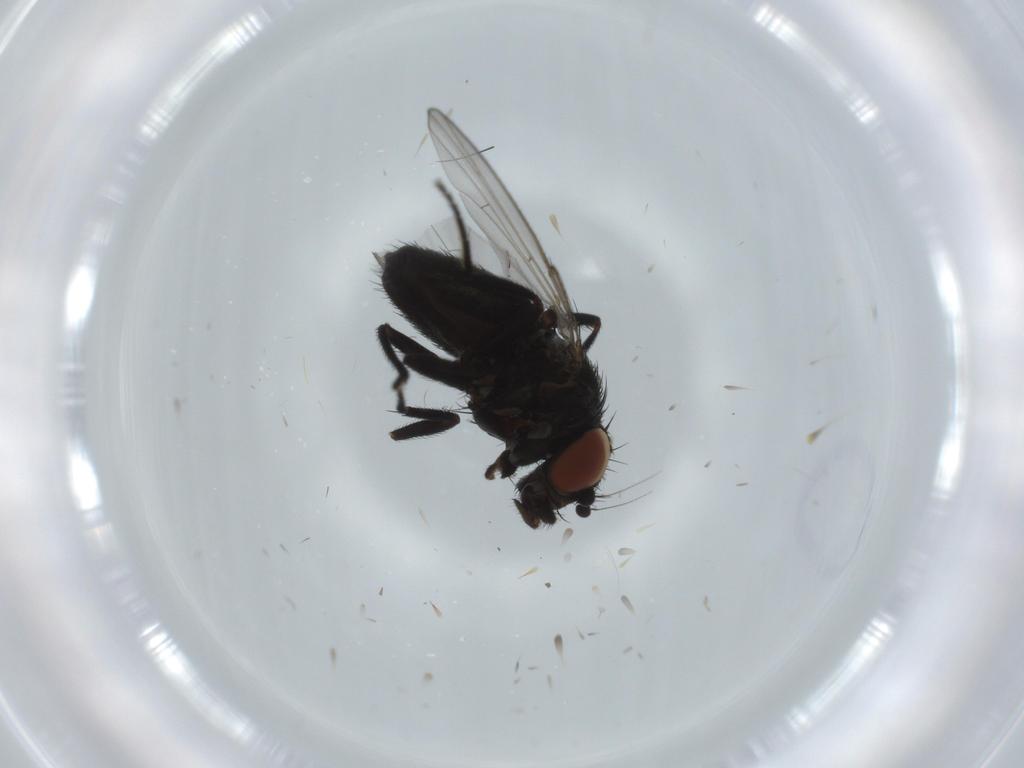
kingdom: Animalia
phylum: Arthropoda
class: Insecta
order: Diptera
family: Milichiidae
